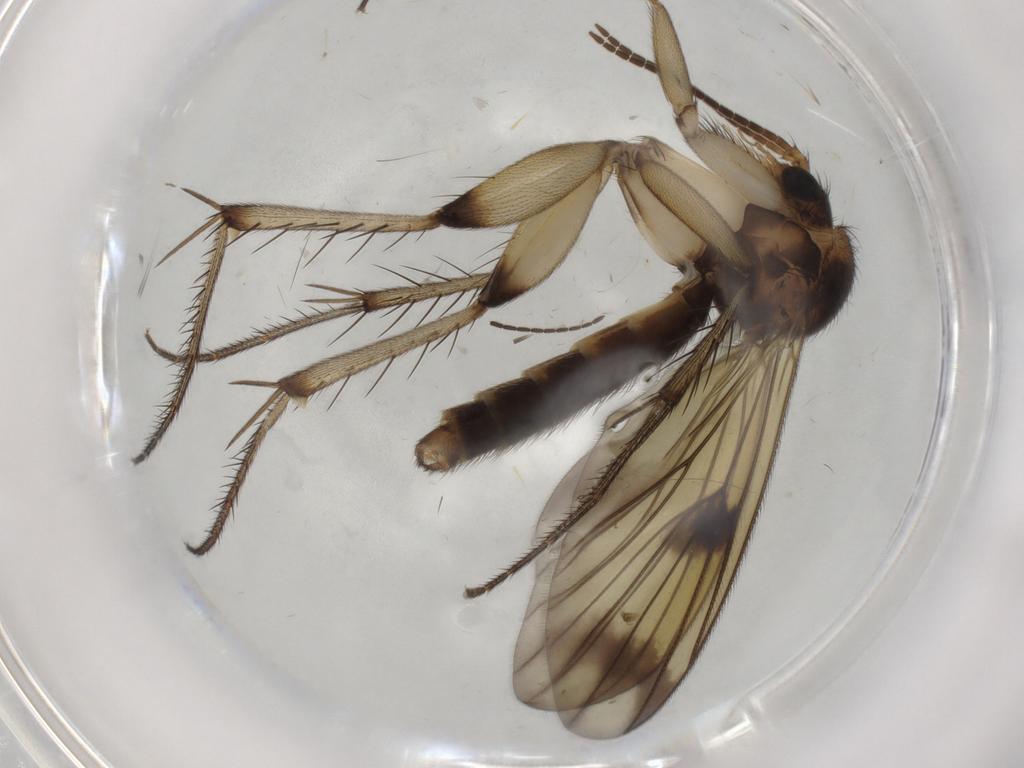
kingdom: Animalia
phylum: Arthropoda
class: Insecta
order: Diptera
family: Mycetophilidae
